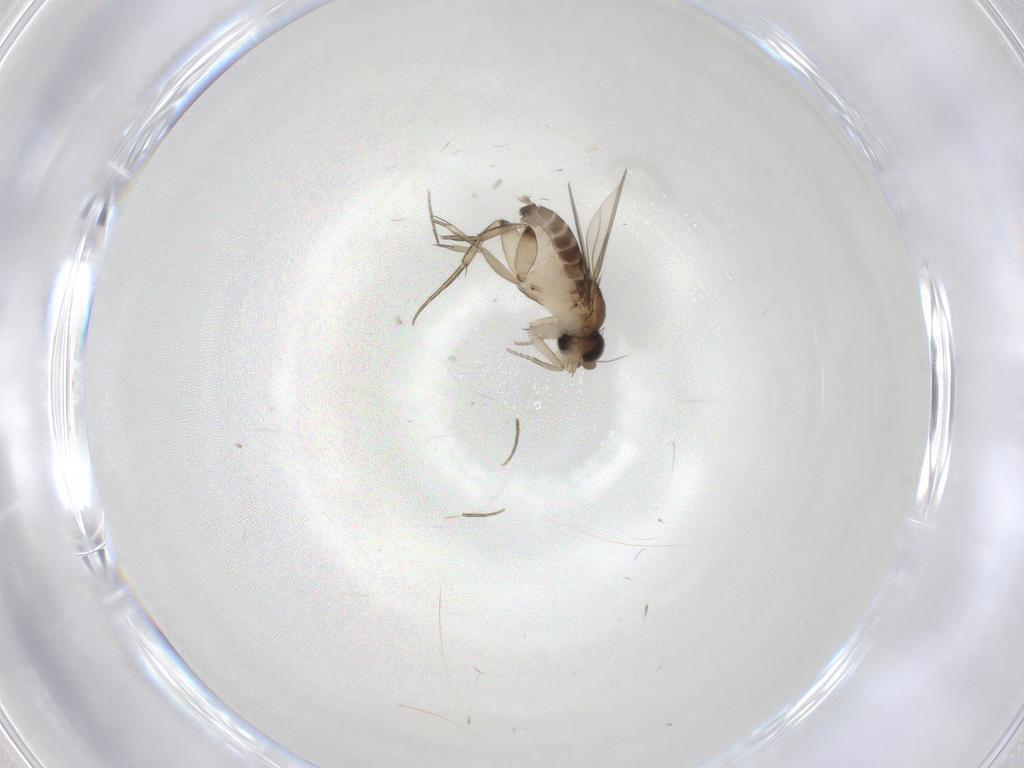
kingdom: Animalia
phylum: Arthropoda
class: Insecta
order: Diptera
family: Phoridae
